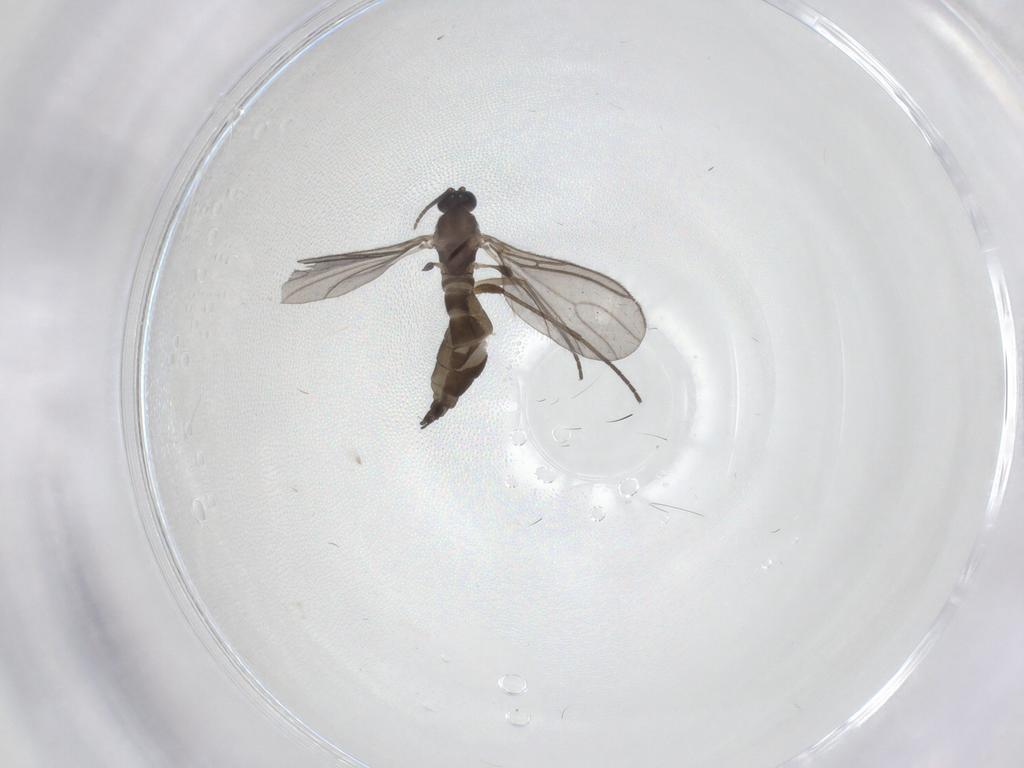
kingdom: Animalia
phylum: Arthropoda
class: Insecta
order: Diptera
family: Sciaridae
